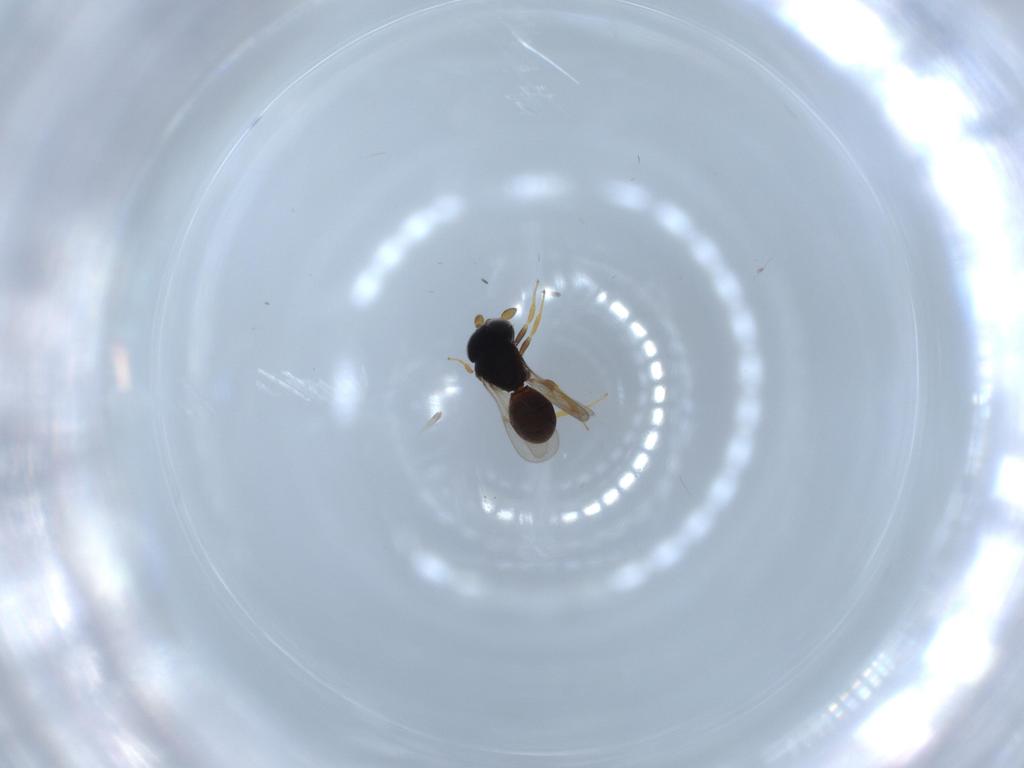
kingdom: Animalia
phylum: Arthropoda
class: Insecta
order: Hymenoptera
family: Scelionidae
